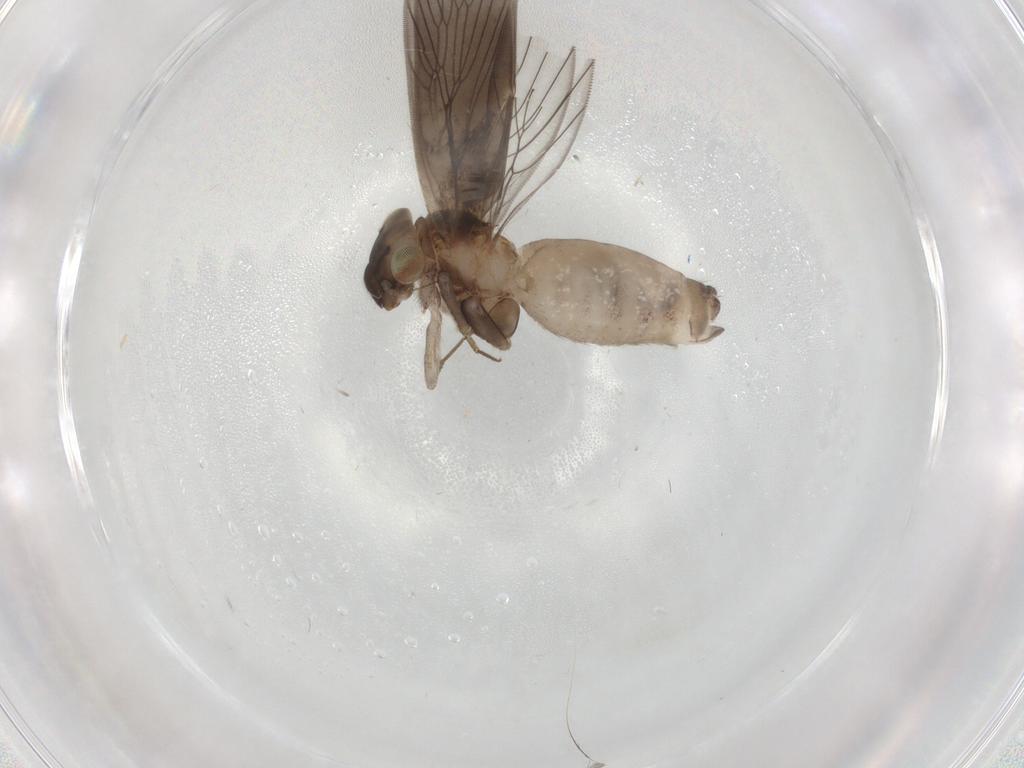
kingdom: Animalia
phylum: Arthropoda
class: Insecta
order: Psocodea
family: Lepidopsocidae
